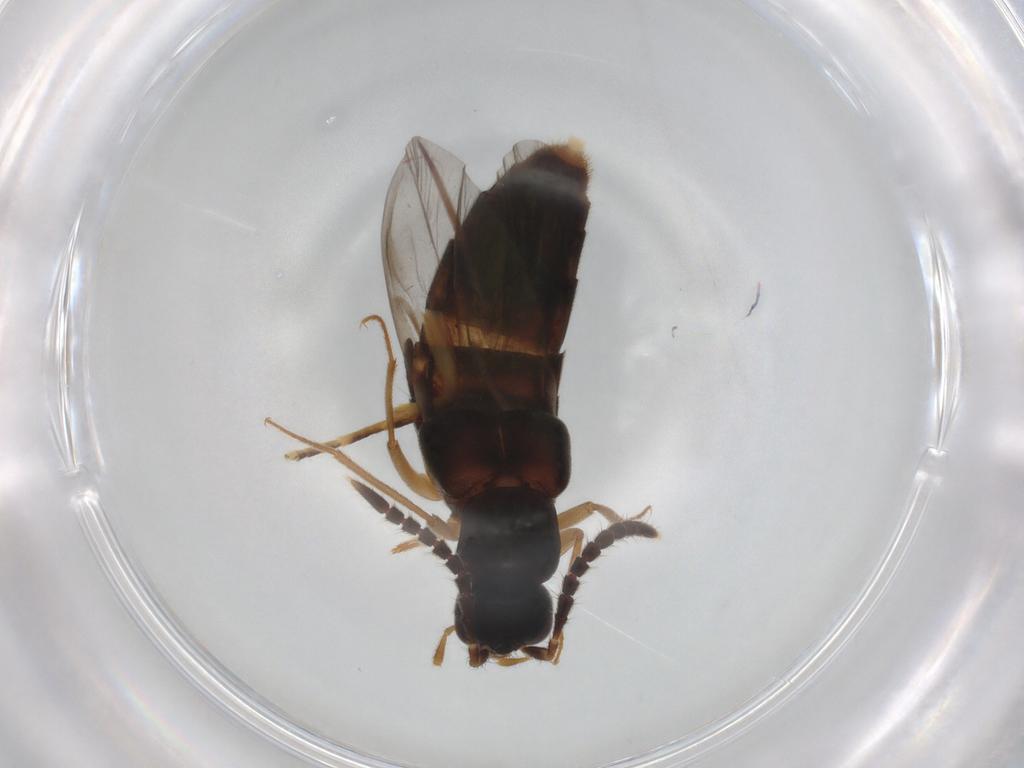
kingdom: Animalia
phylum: Arthropoda
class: Insecta
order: Coleoptera
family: Staphylinidae
